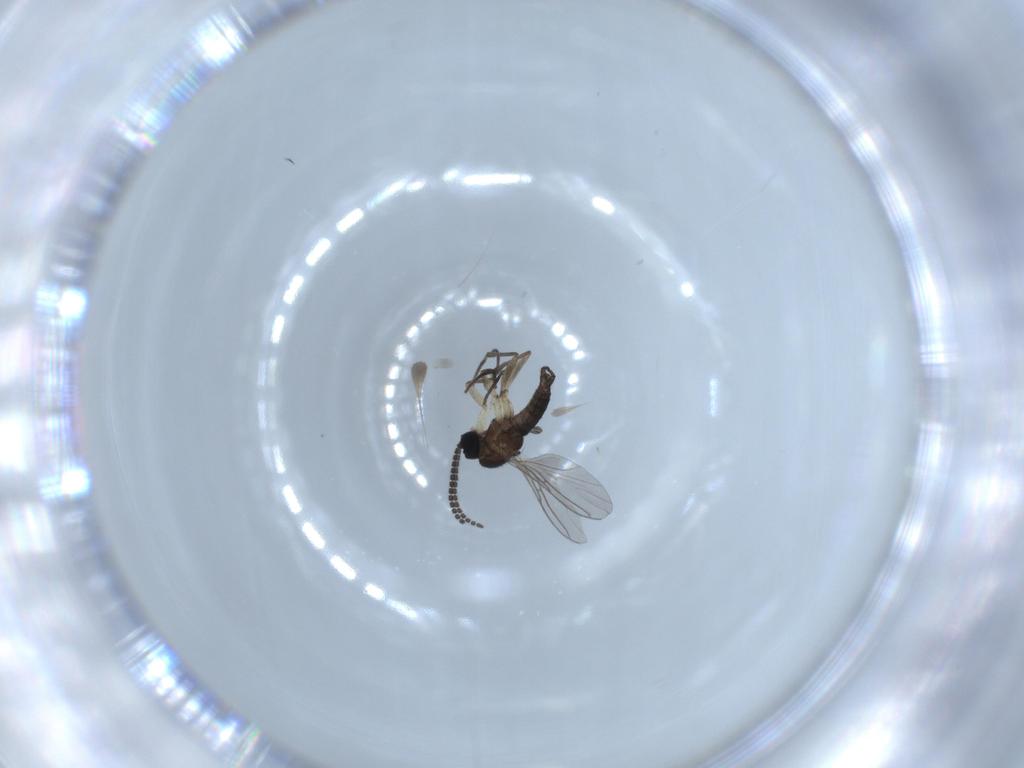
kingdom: Animalia
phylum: Arthropoda
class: Insecta
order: Diptera
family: Sciaridae
